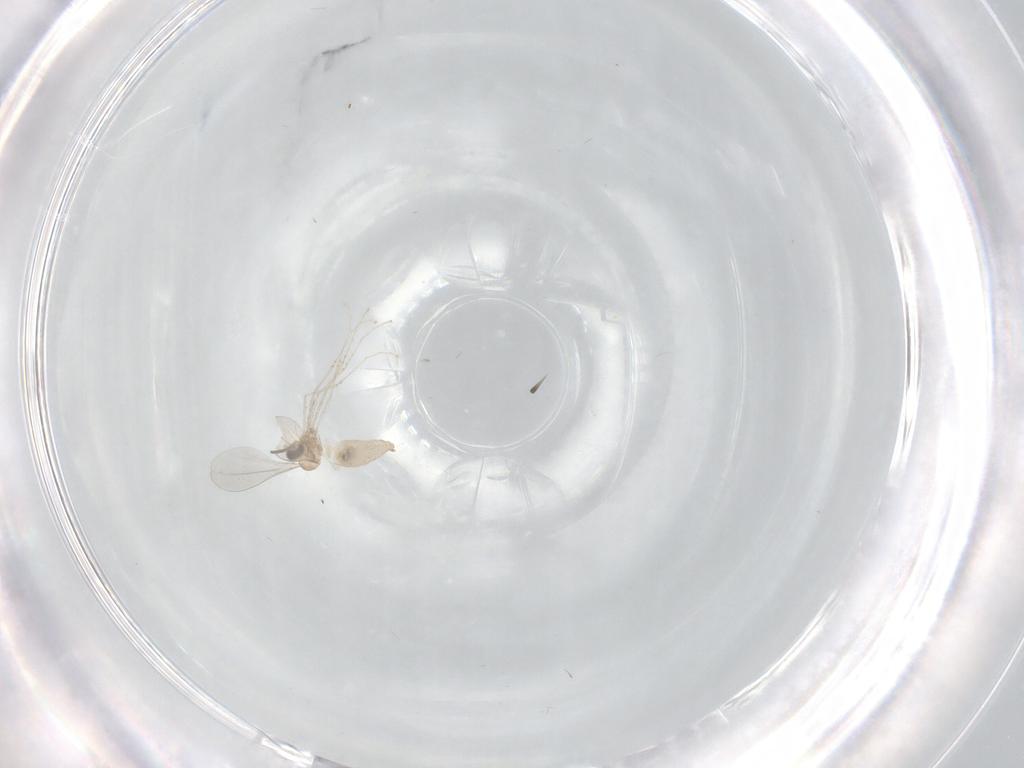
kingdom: Animalia
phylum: Arthropoda
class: Insecta
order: Diptera
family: Cecidomyiidae
